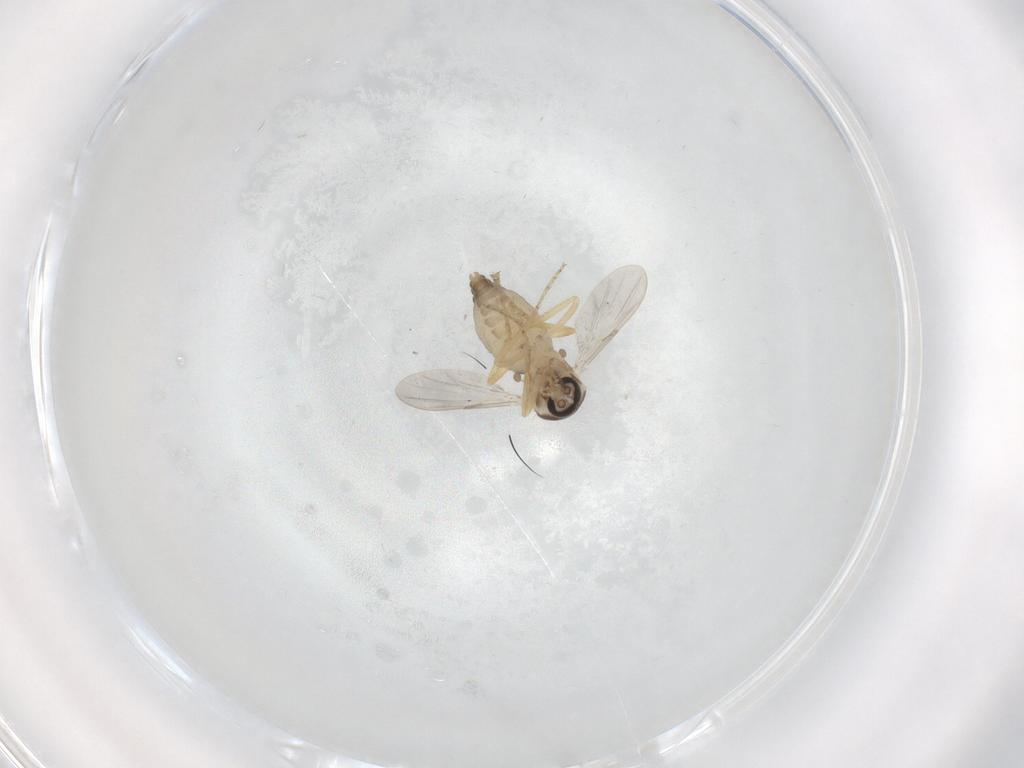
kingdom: Animalia
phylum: Arthropoda
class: Insecta
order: Diptera
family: Ceratopogonidae
